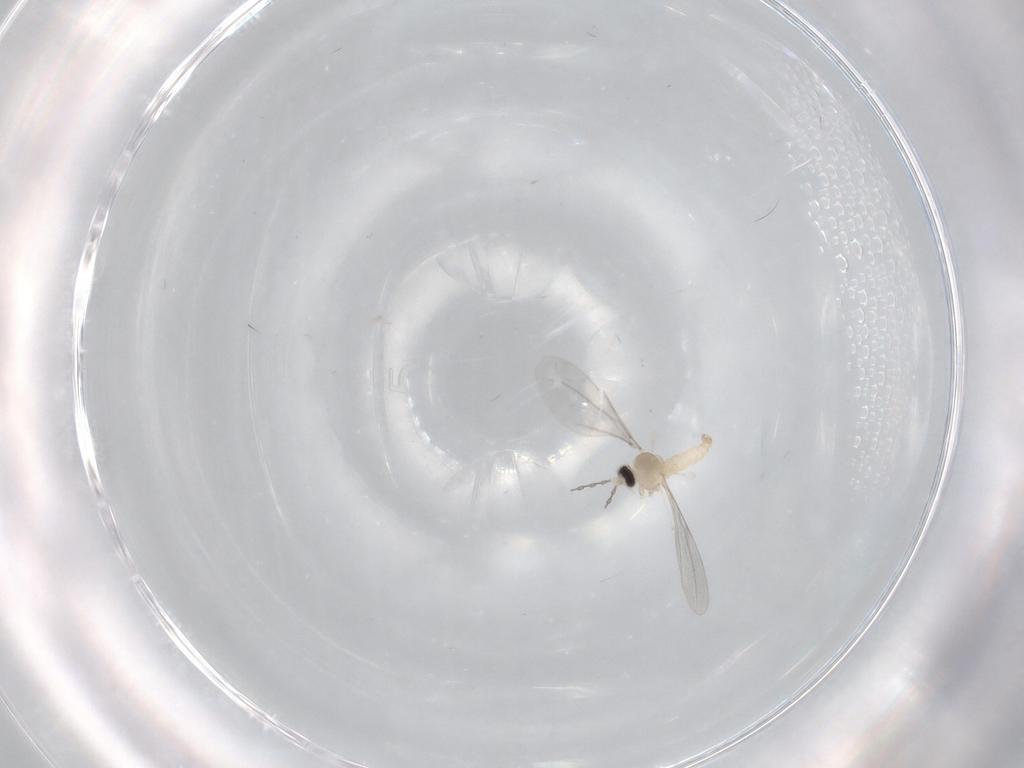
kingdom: Animalia
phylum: Arthropoda
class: Insecta
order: Diptera
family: Cecidomyiidae
